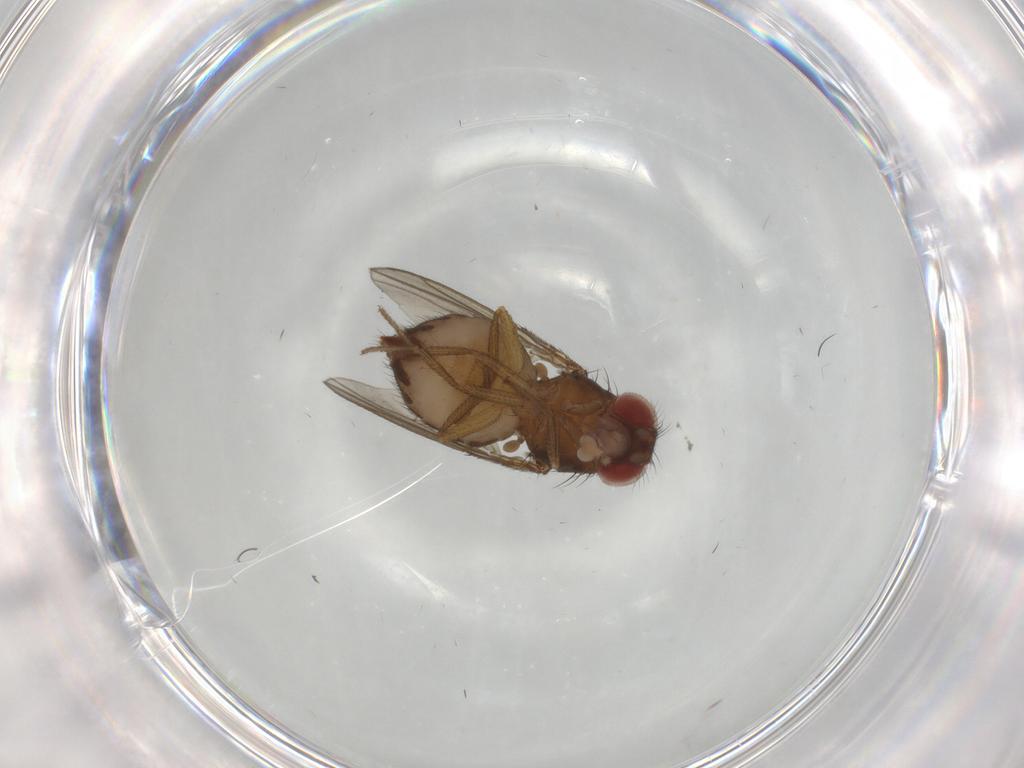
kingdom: Animalia
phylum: Arthropoda
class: Insecta
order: Diptera
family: Drosophilidae
